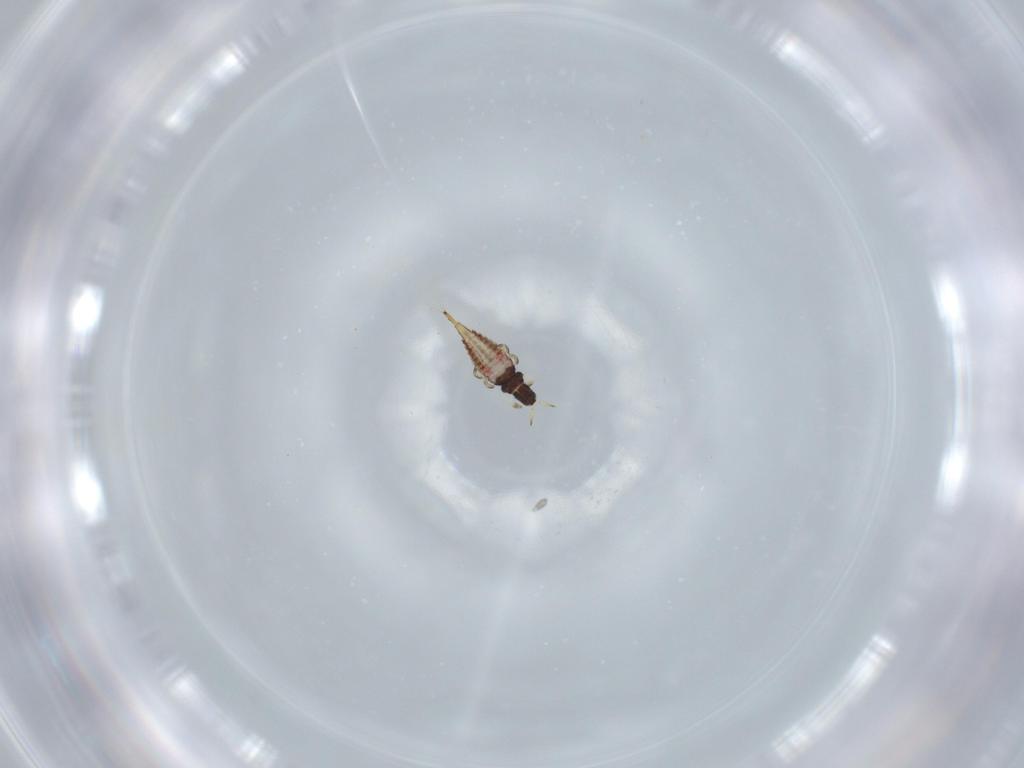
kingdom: Animalia
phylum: Arthropoda
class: Insecta
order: Thysanoptera
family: Phlaeothripidae
